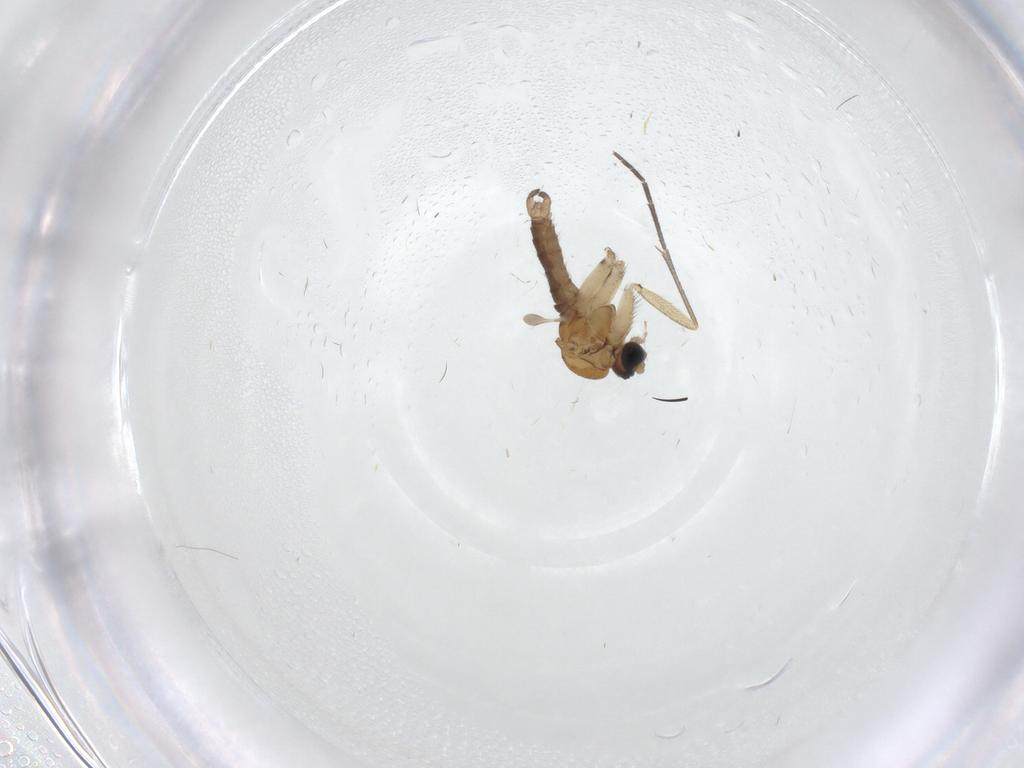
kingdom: Animalia
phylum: Arthropoda
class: Insecta
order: Diptera
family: Sciaridae
